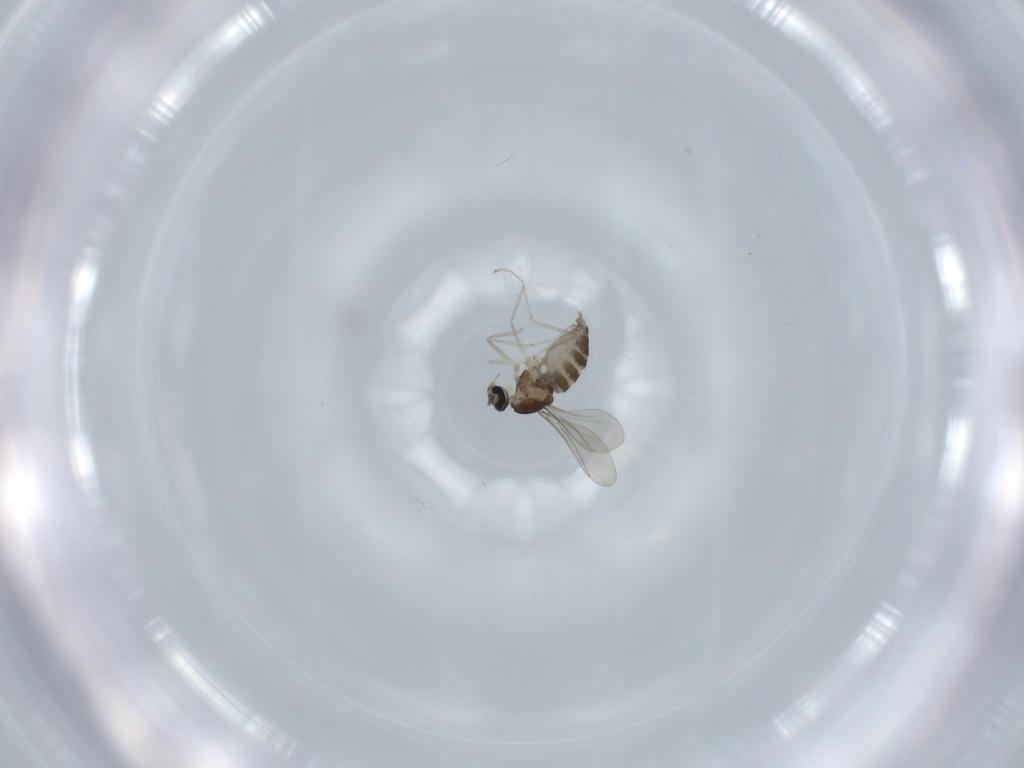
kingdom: Animalia
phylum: Arthropoda
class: Insecta
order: Diptera
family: Cecidomyiidae
